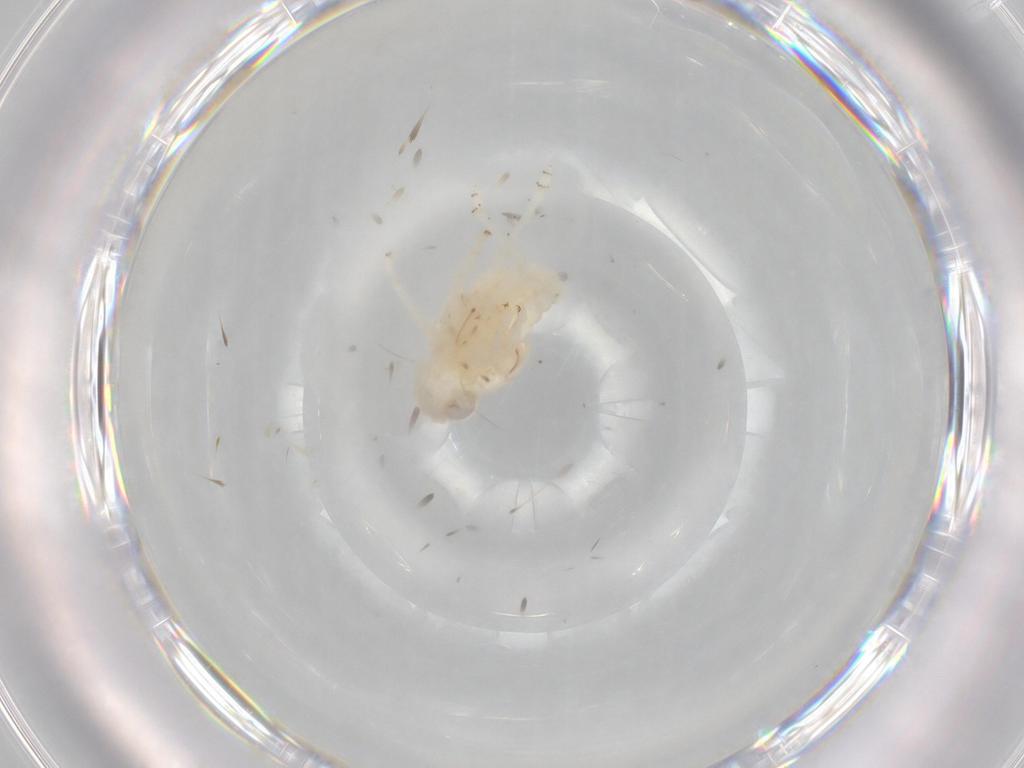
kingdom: Animalia
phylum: Arthropoda
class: Insecta
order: Hemiptera
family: Nogodinidae
